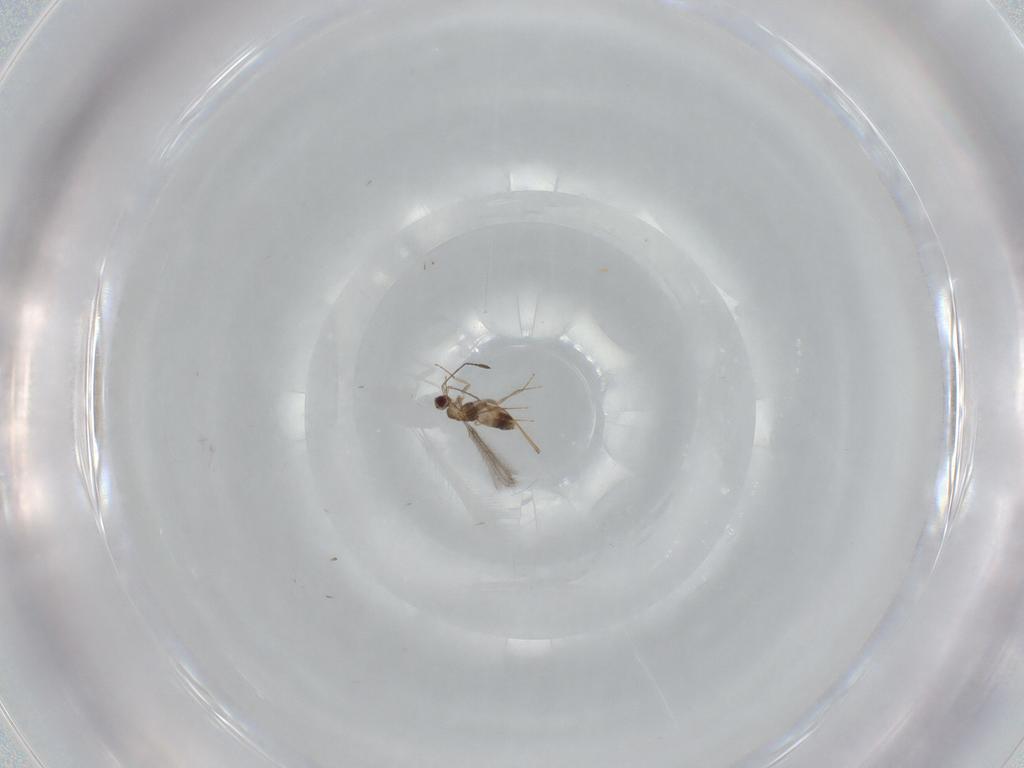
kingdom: Animalia
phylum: Arthropoda
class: Insecta
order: Hymenoptera
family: Mymaridae
